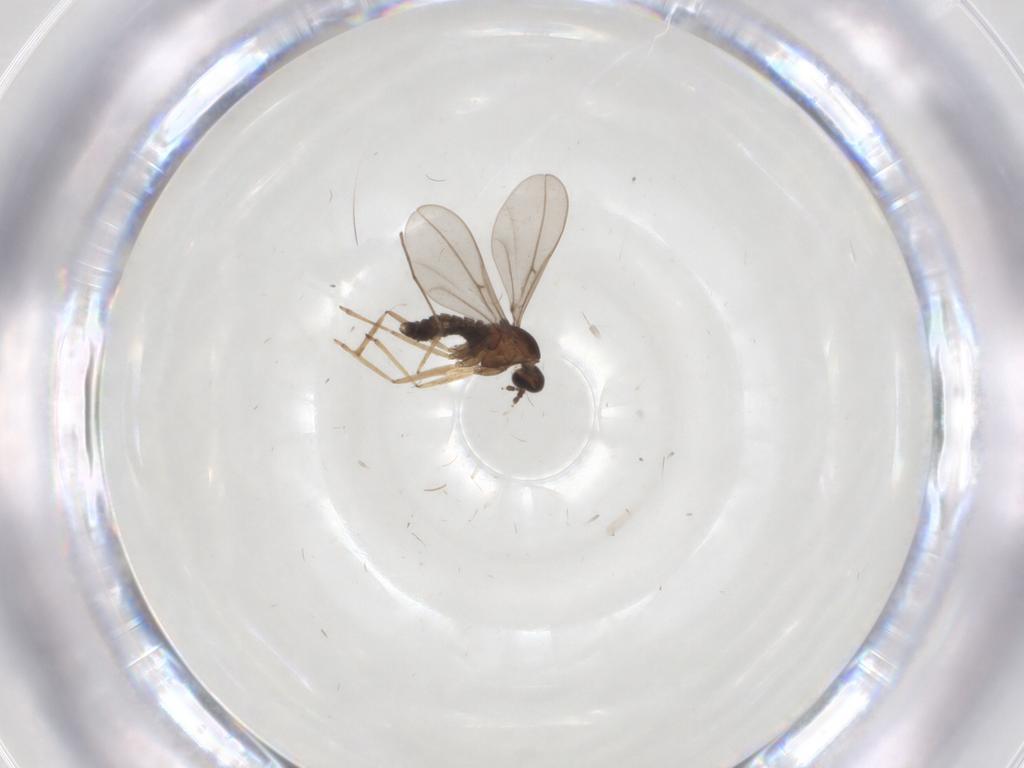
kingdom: Animalia
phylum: Arthropoda
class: Insecta
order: Diptera
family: Cecidomyiidae
